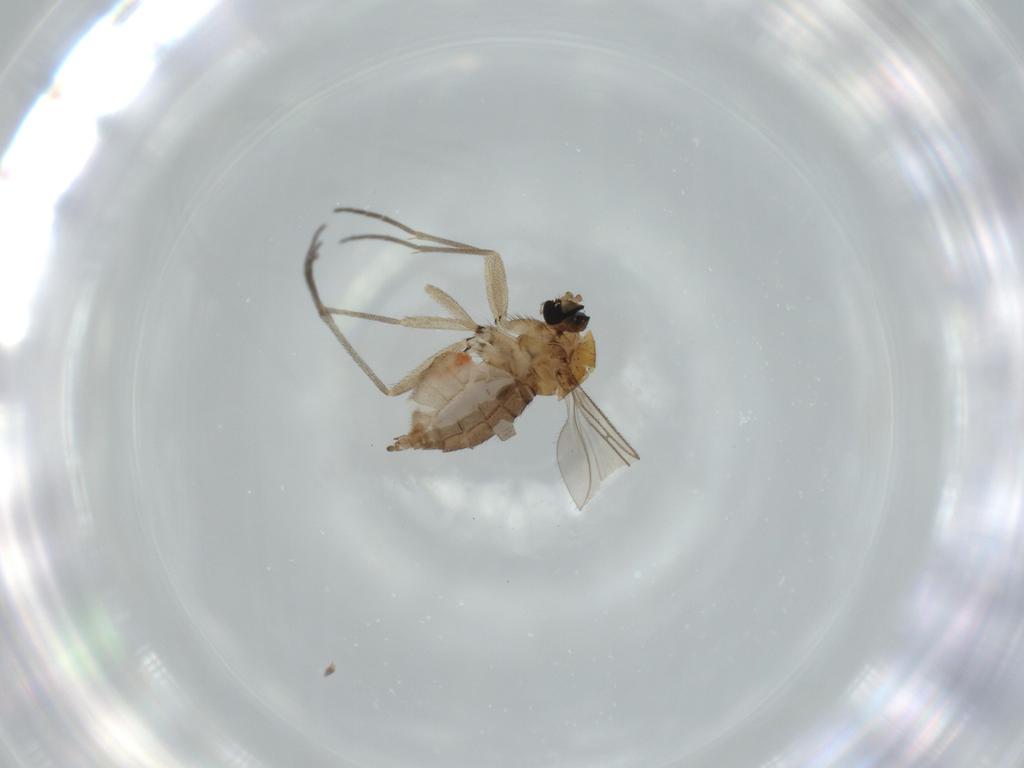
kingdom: Animalia
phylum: Arthropoda
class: Insecta
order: Diptera
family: Sciaridae
